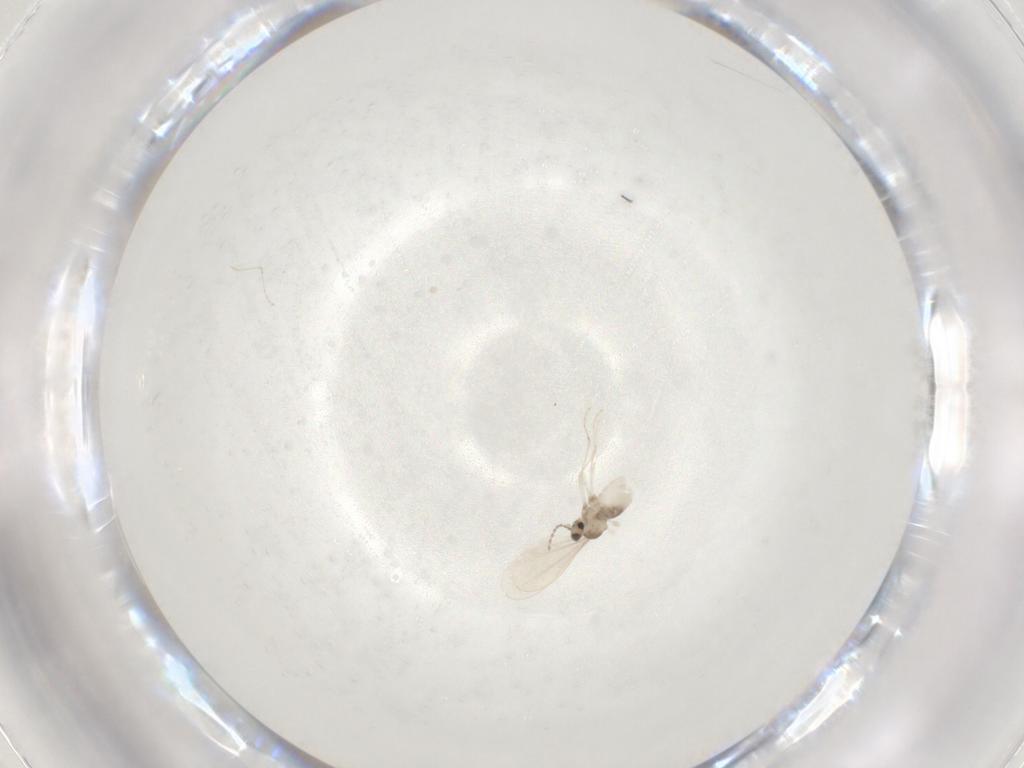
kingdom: Animalia
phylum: Arthropoda
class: Insecta
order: Diptera
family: Cecidomyiidae
